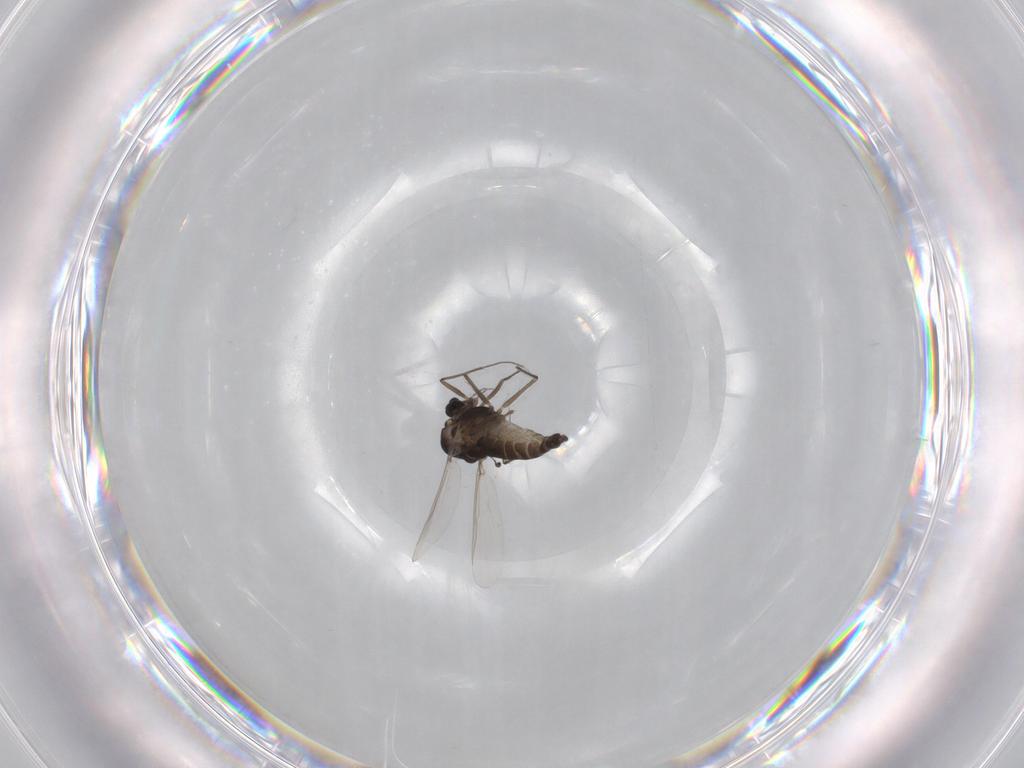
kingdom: Animalia
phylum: Arthropoda
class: Insecta
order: Diptera
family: Chironomidae
